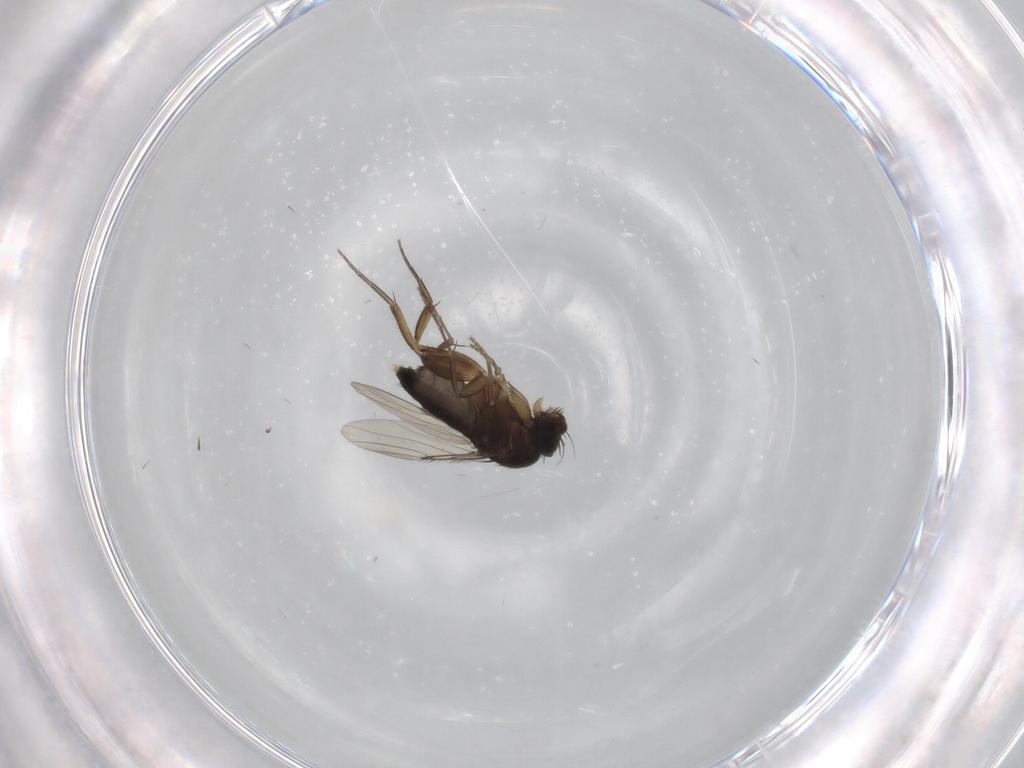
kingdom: Animalia
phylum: Arthropoda
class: Insecta
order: Diptera
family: Phoridae
